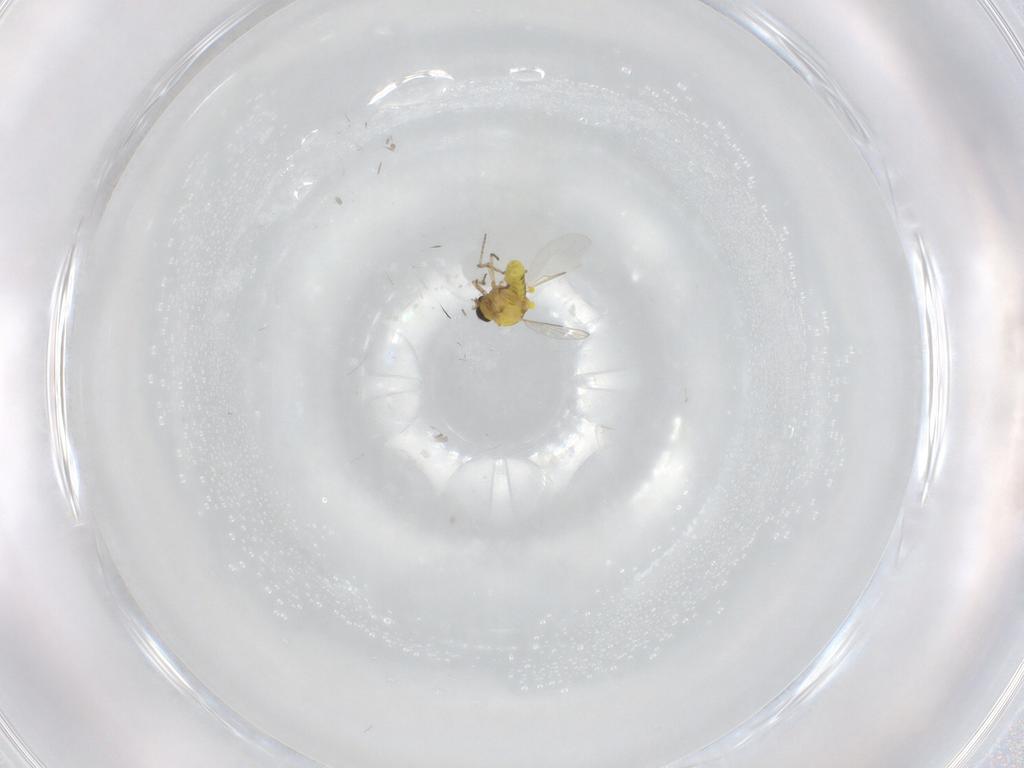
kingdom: Animalia
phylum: Arthropoda
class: Insecta
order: Diptera
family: Ceratopogonidae
